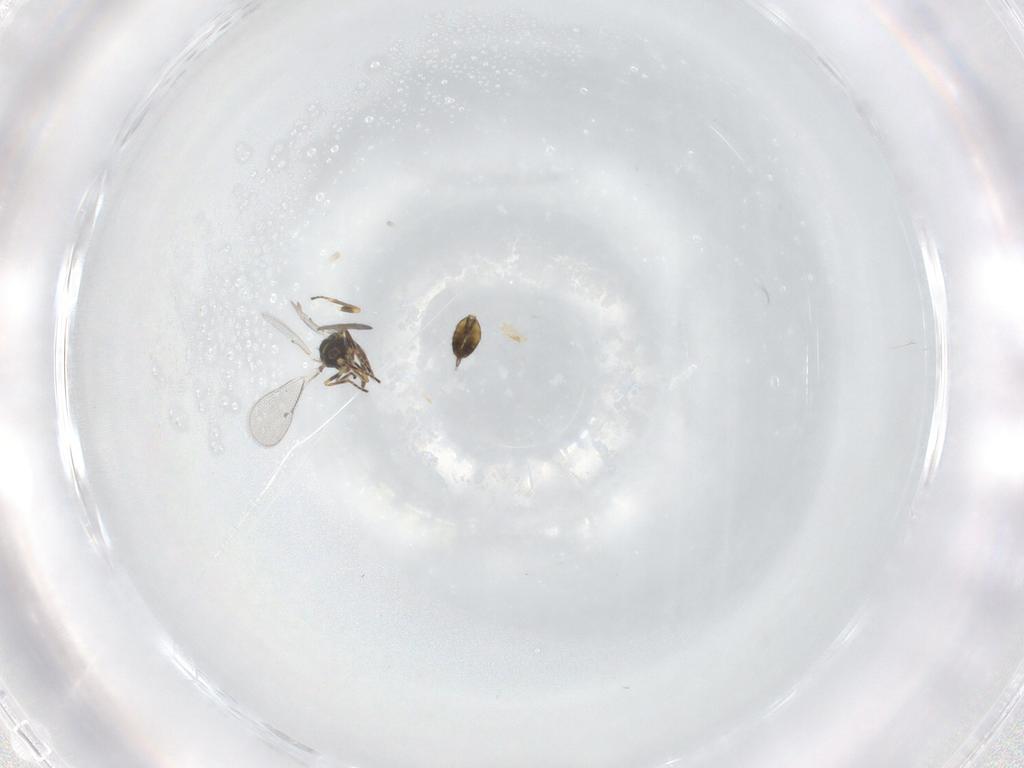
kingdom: Animalia
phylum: Arthropoda
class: Insecta
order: Hymenoptera
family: Eulophidae
